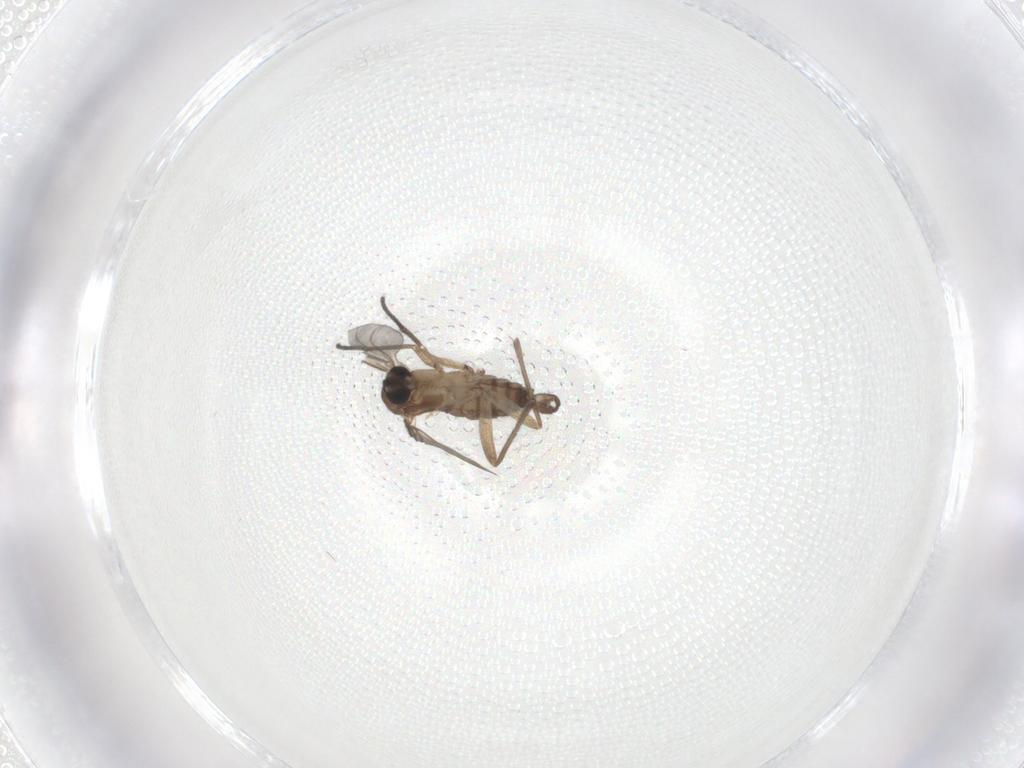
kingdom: Animalia
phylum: Arthropoda
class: Insecta
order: Diptera
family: Sciaridae
